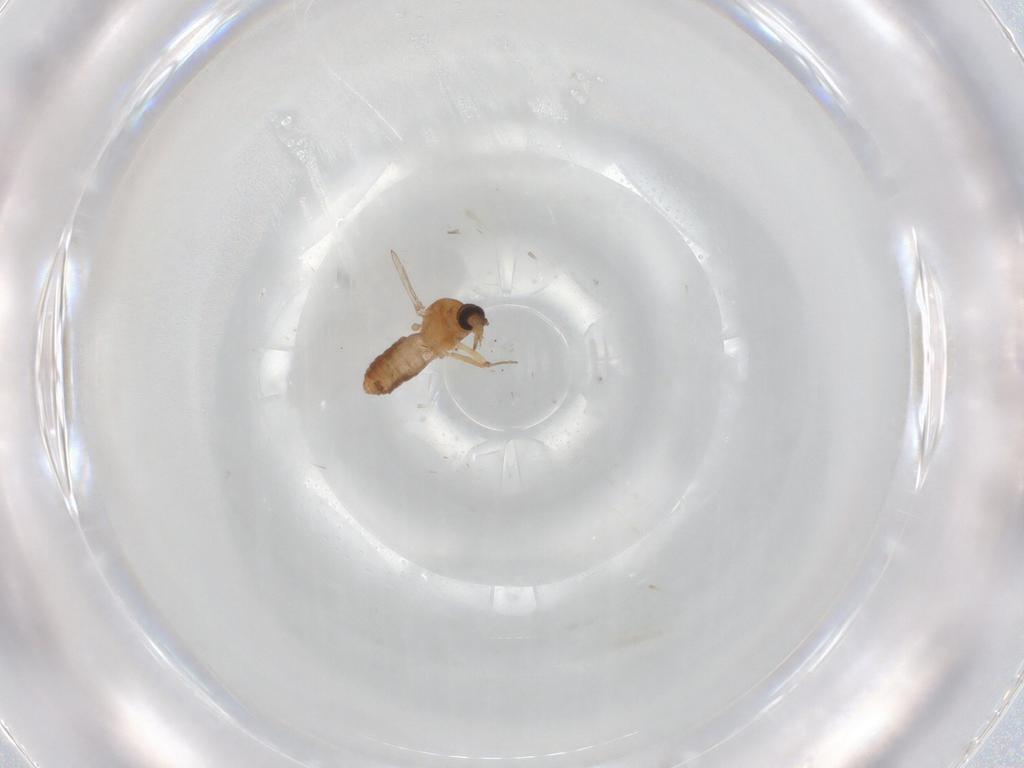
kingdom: Animalia
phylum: Arthropoda
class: Insecta
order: Diptera
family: Ceratopogonidae
